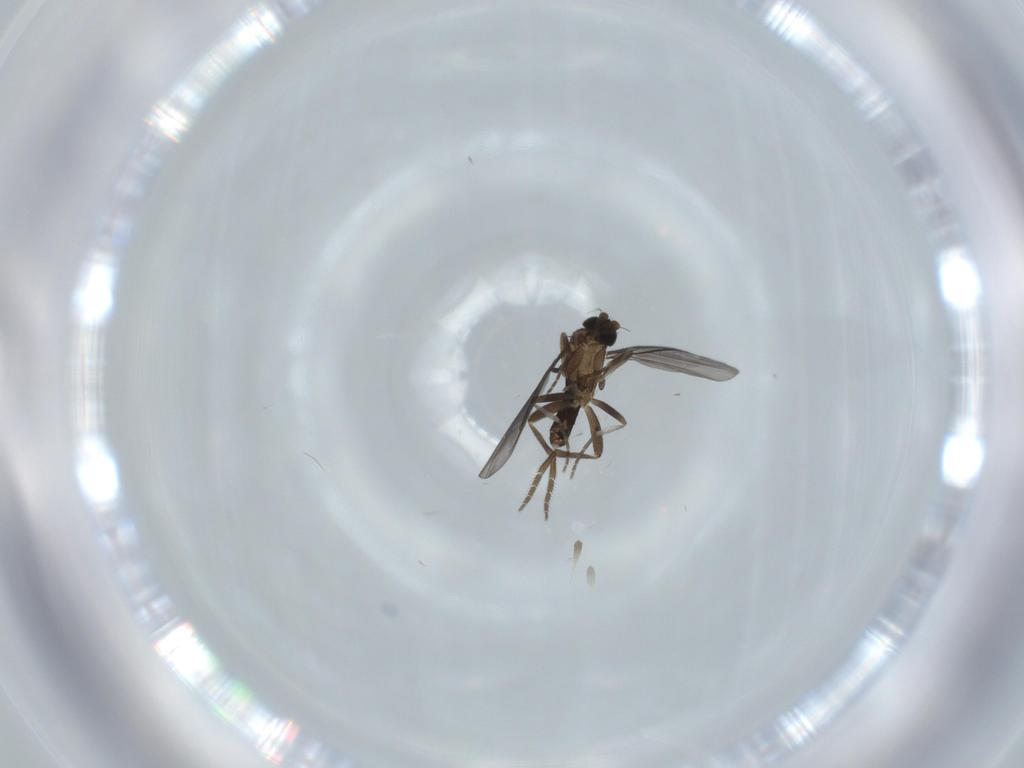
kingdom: Animalia
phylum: Arthropoda
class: Insecta
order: Diptera
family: Phoridae
